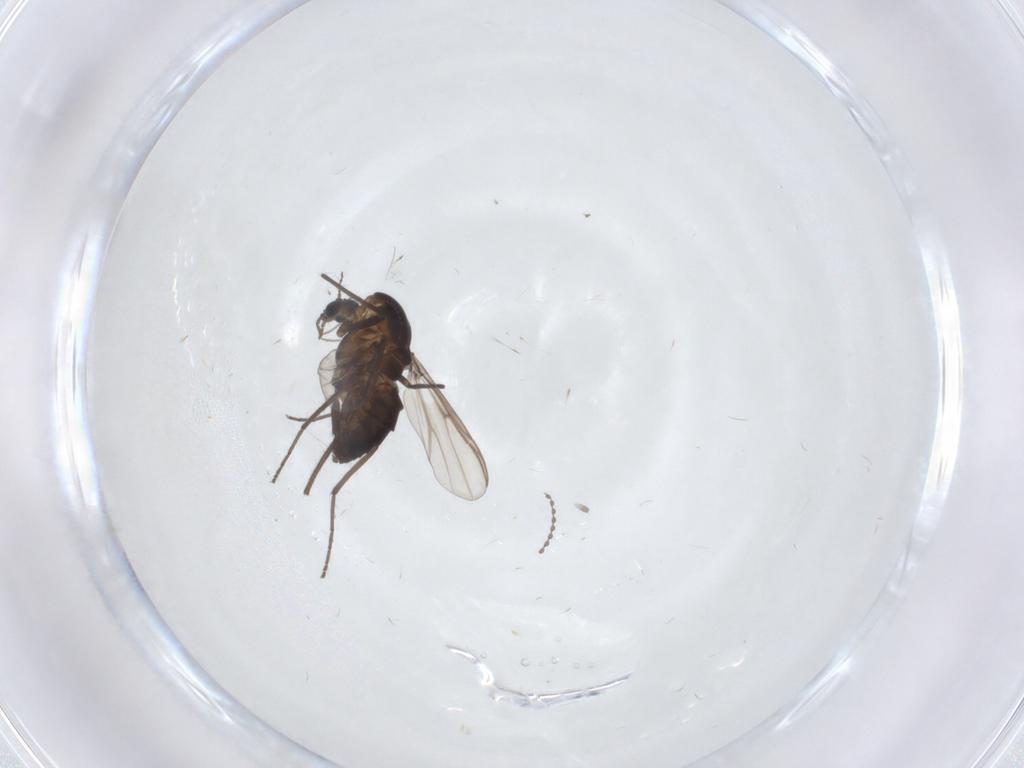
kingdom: Animalia
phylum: Arthropoda
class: Insecta
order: Diptera
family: Chironomidae
